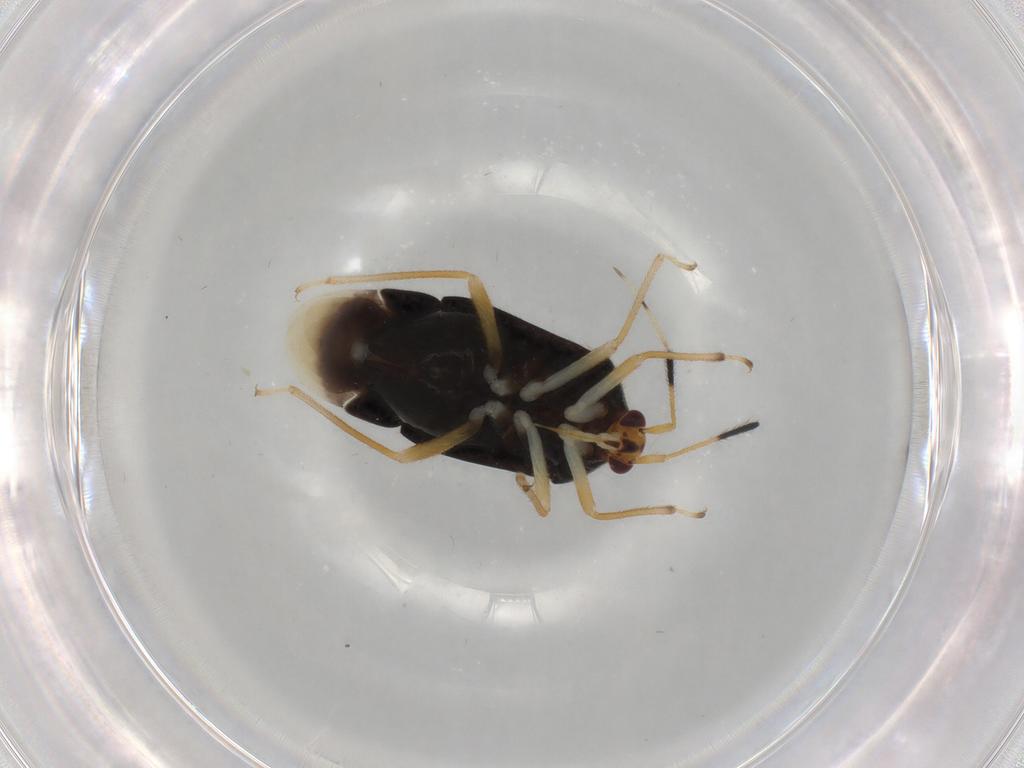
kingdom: Animalia
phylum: Arthropoda
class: Insecta
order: Hemiptera
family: Miridae
